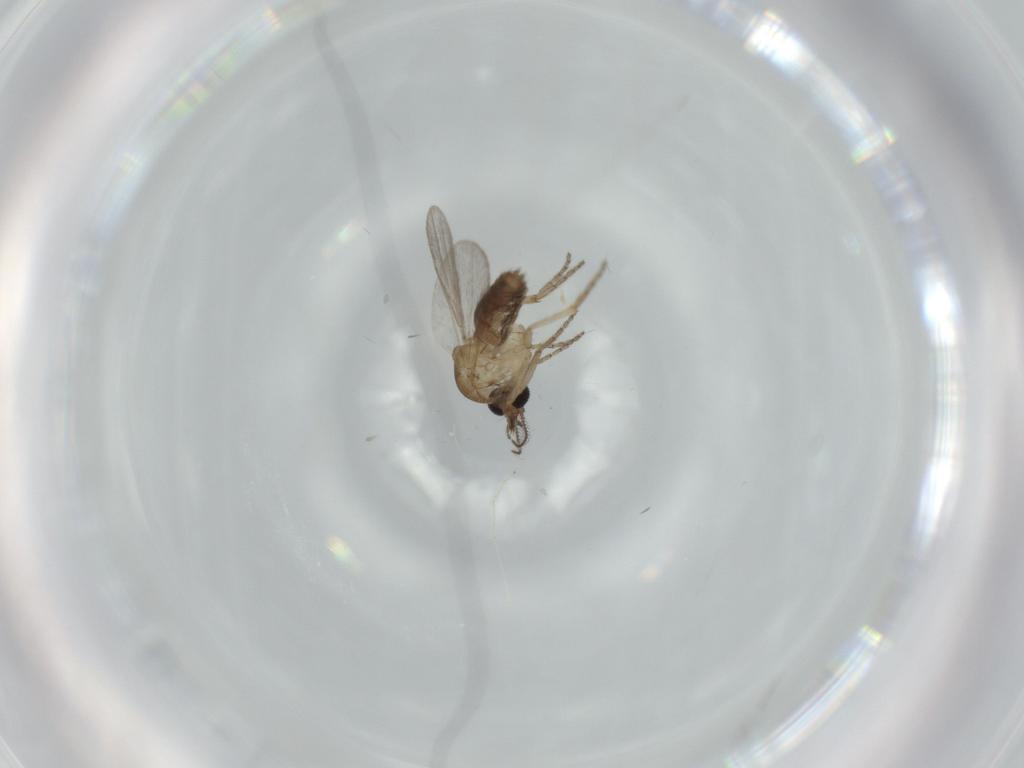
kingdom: Animalia
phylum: Arthropoda
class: Insecta
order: Diptera
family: Ceratopogonidae
